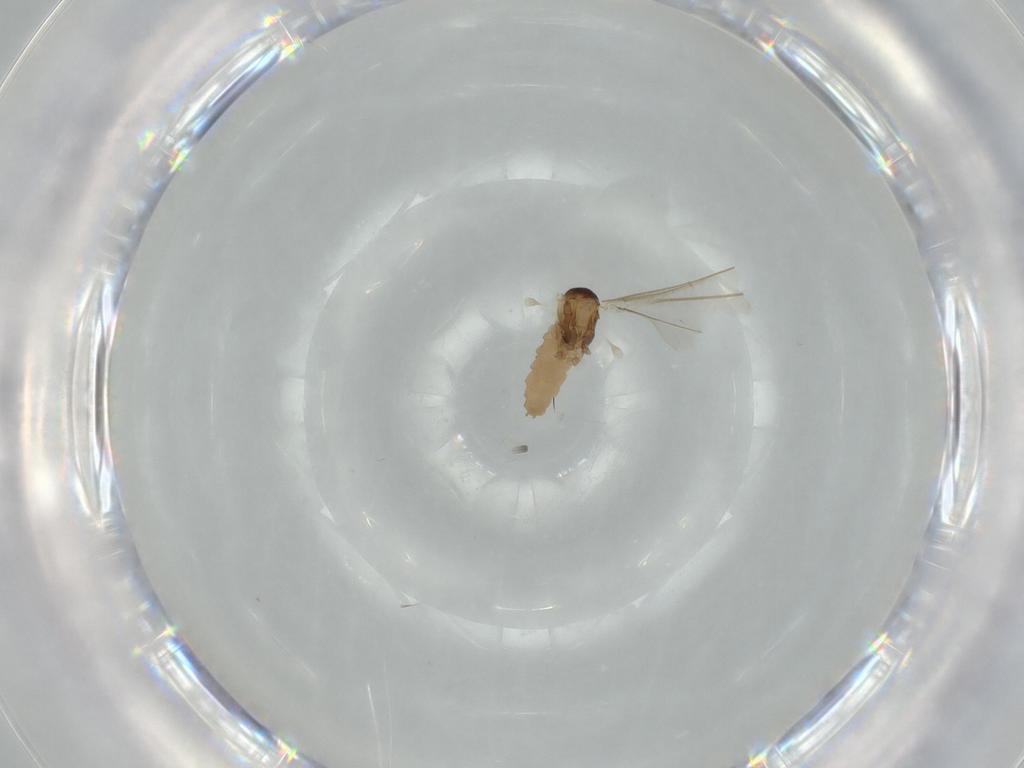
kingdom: Animalia
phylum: Arthropoda
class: Insecta
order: Diptera
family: Cecidomyiidae
